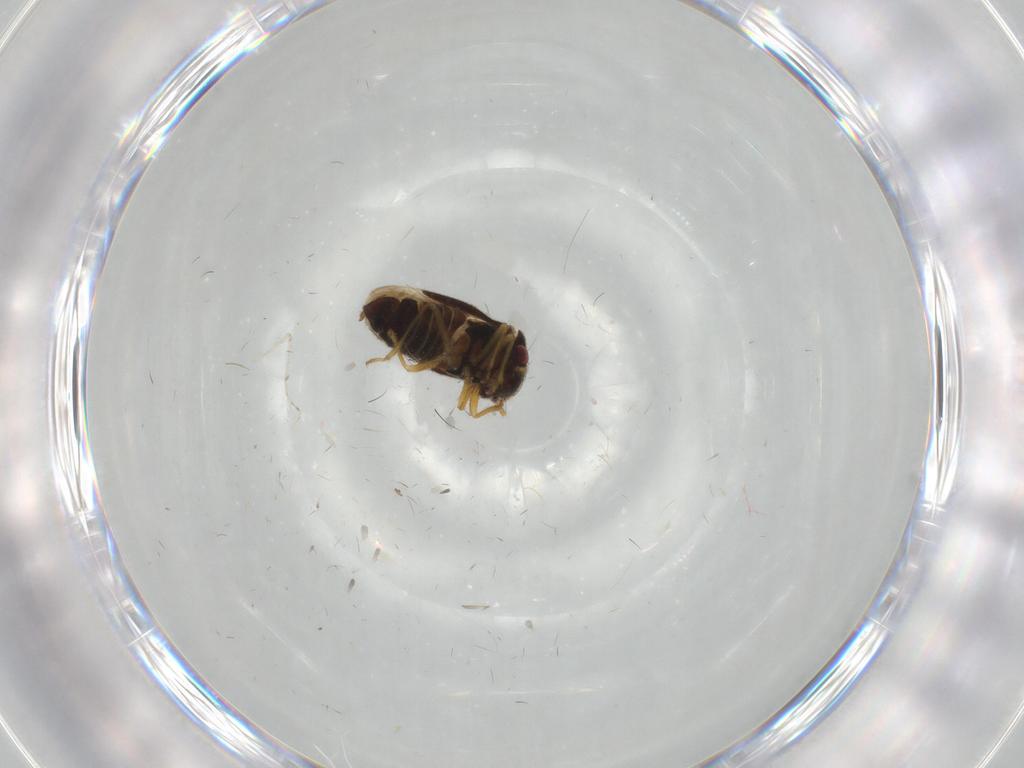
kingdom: Animalia
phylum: Arthropoda
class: Insecta
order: Hemiptera
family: Schizopteridae
